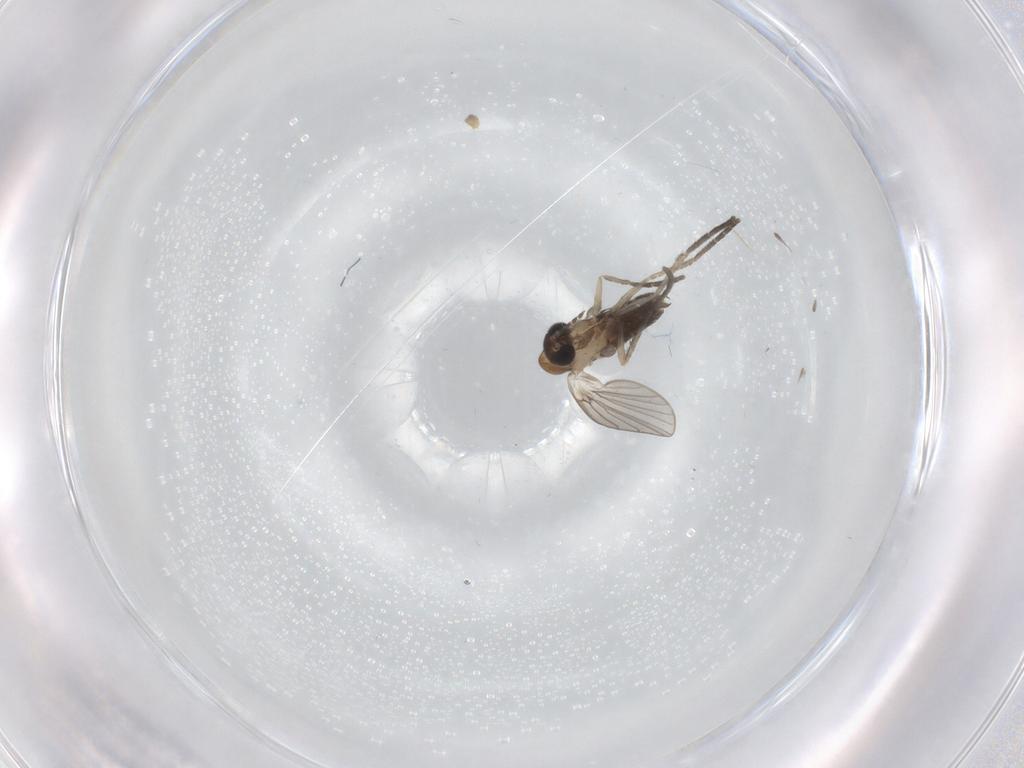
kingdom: Animalia
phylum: Arthropoda
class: Insecta
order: Diptera
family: Psychodidae
